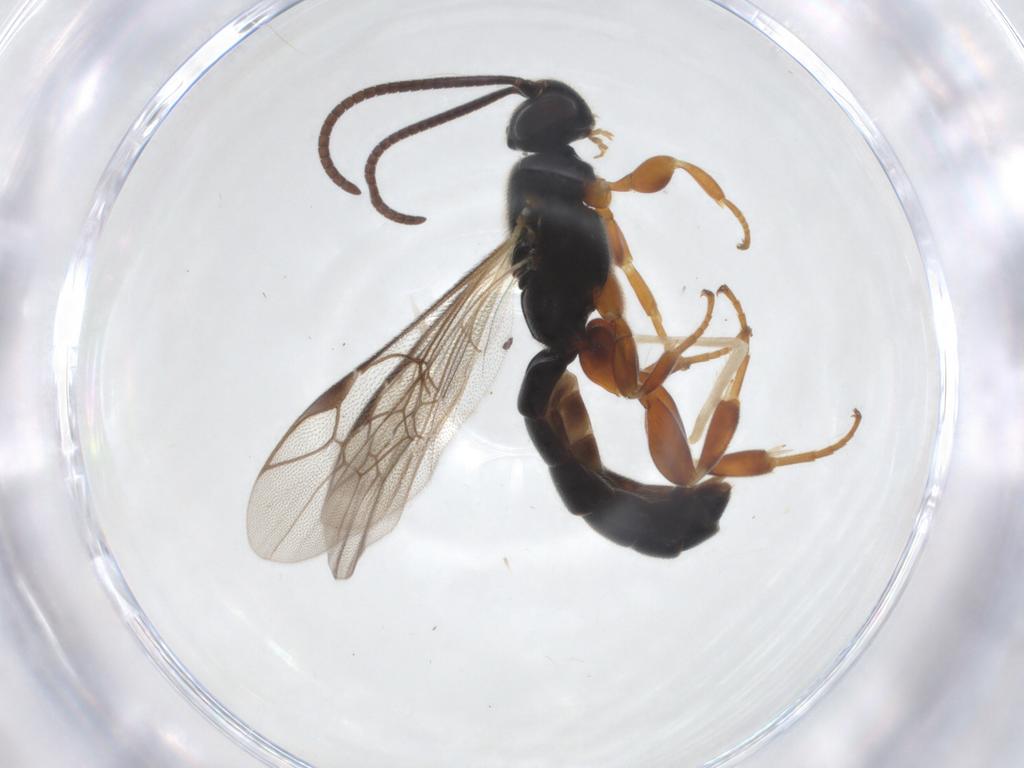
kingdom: Animalia
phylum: Arthropoda
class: Insecta
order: Hymenoptera
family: Ichneumonidae
